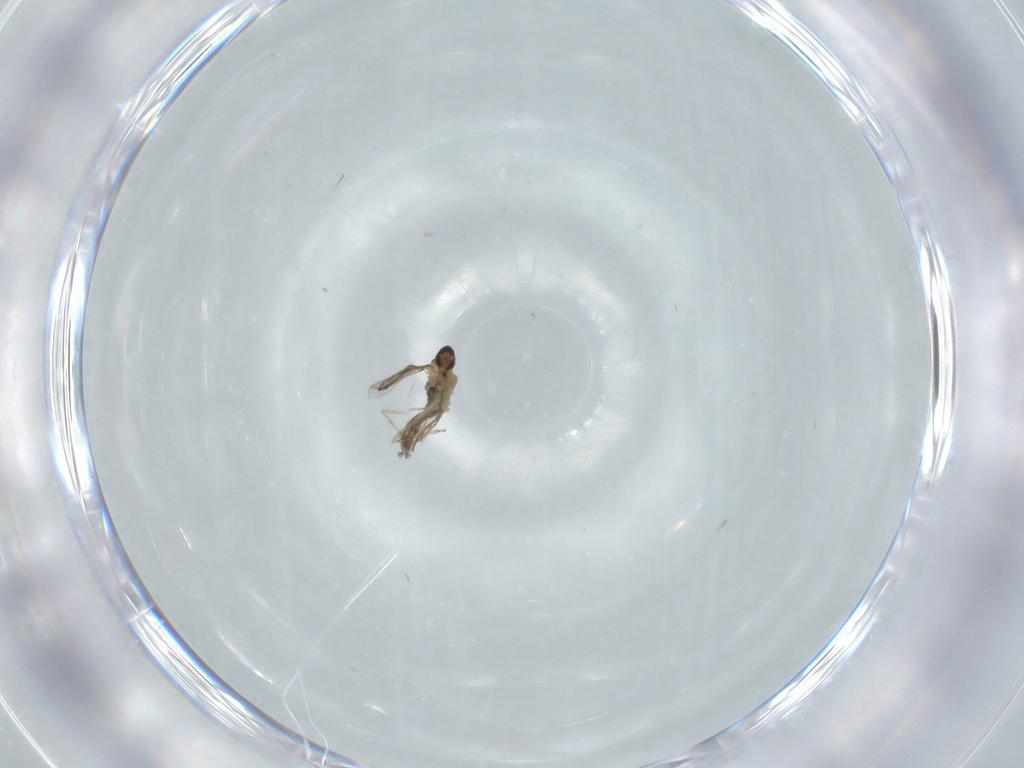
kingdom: Animalia
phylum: Arthropoda
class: Insecta
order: Diptera
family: Cecidomyiidae
